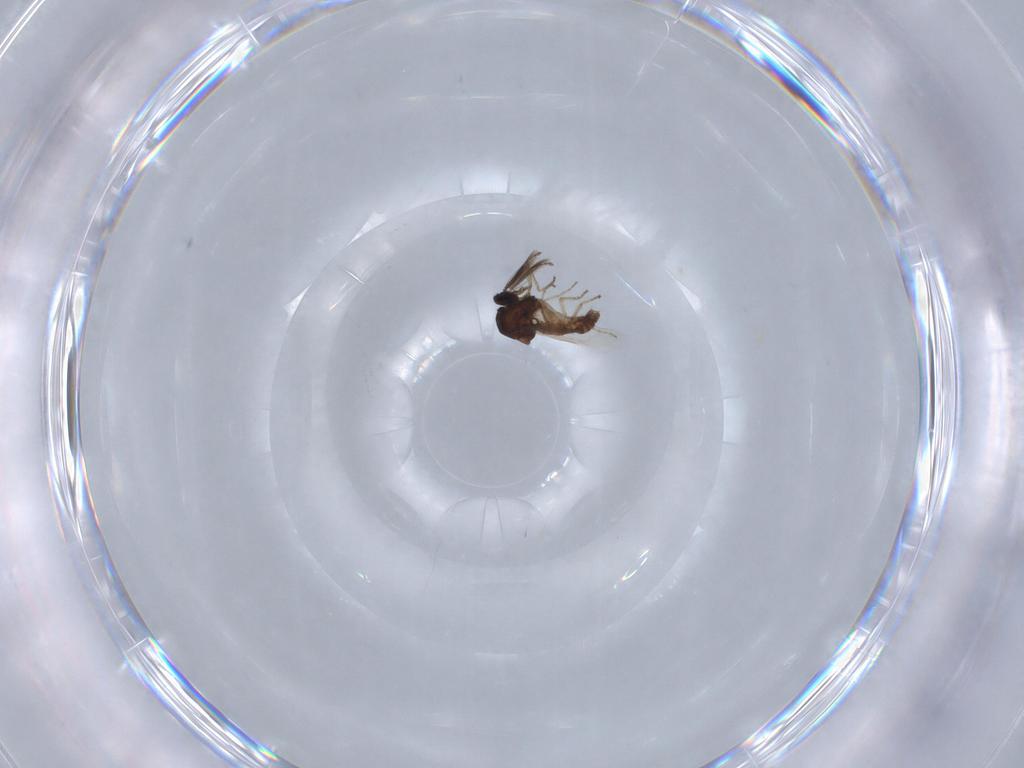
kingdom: Animalia
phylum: Arthropoda
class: Insecta
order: Diptera
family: Ceratopogonidae
